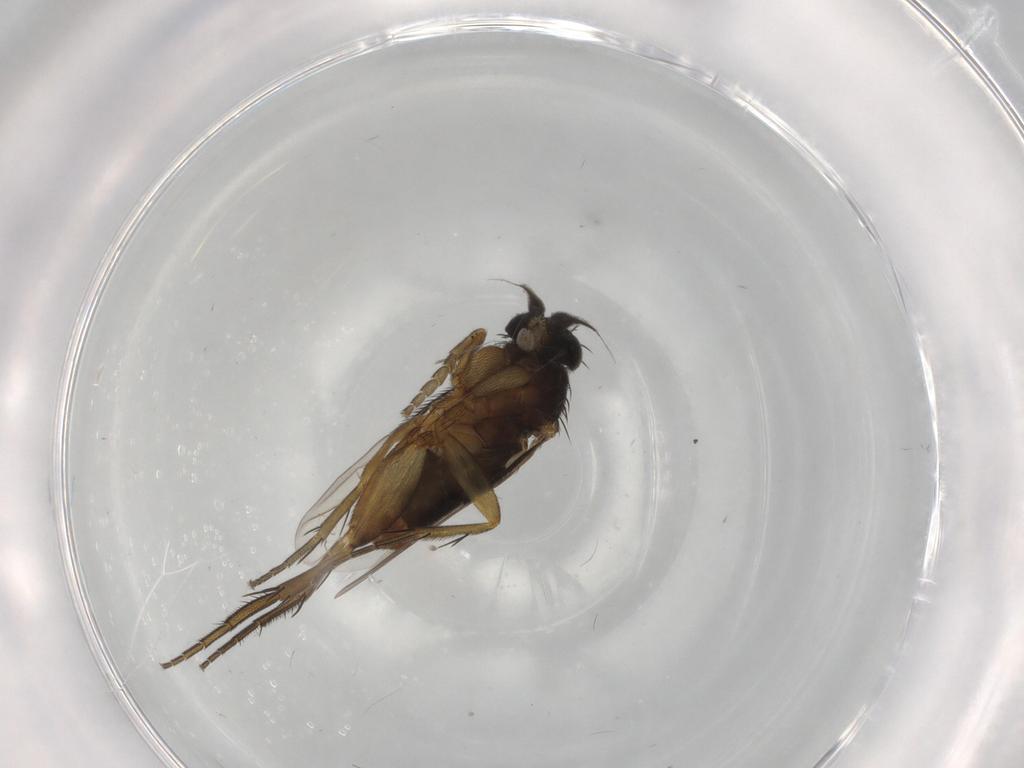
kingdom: Animalia
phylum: Arthropoda
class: Insecta
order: Diptera
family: Phoridae
